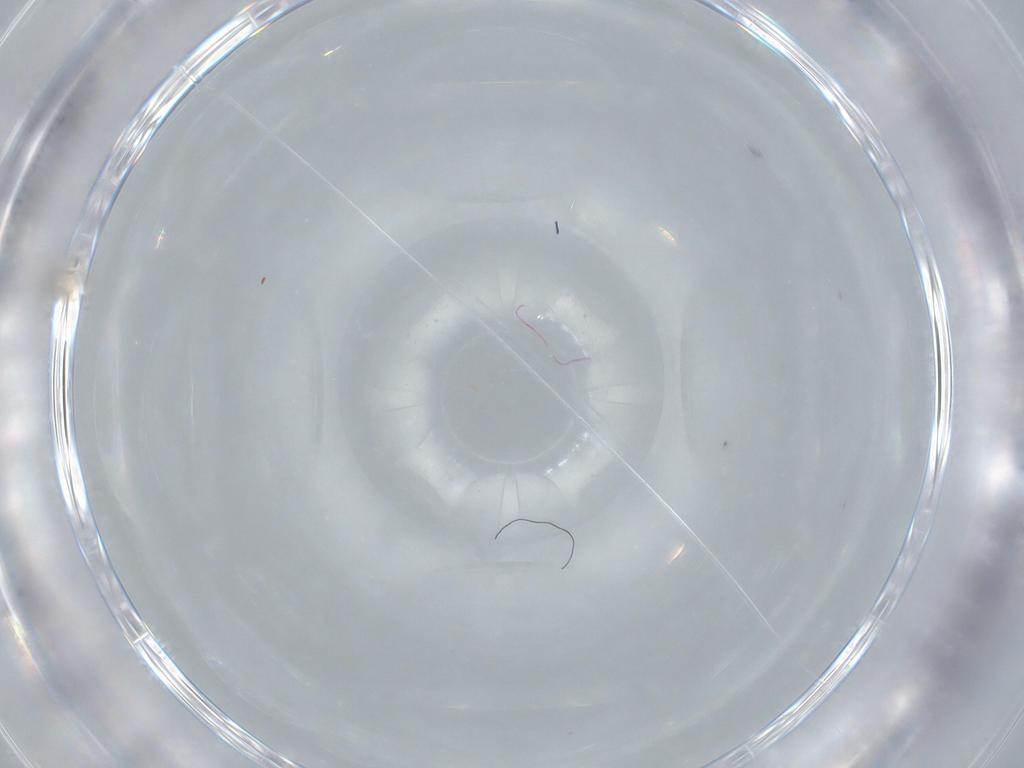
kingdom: Animalia
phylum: Arthropoda
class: Insecta
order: Diptera
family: Cecidomyiidae
